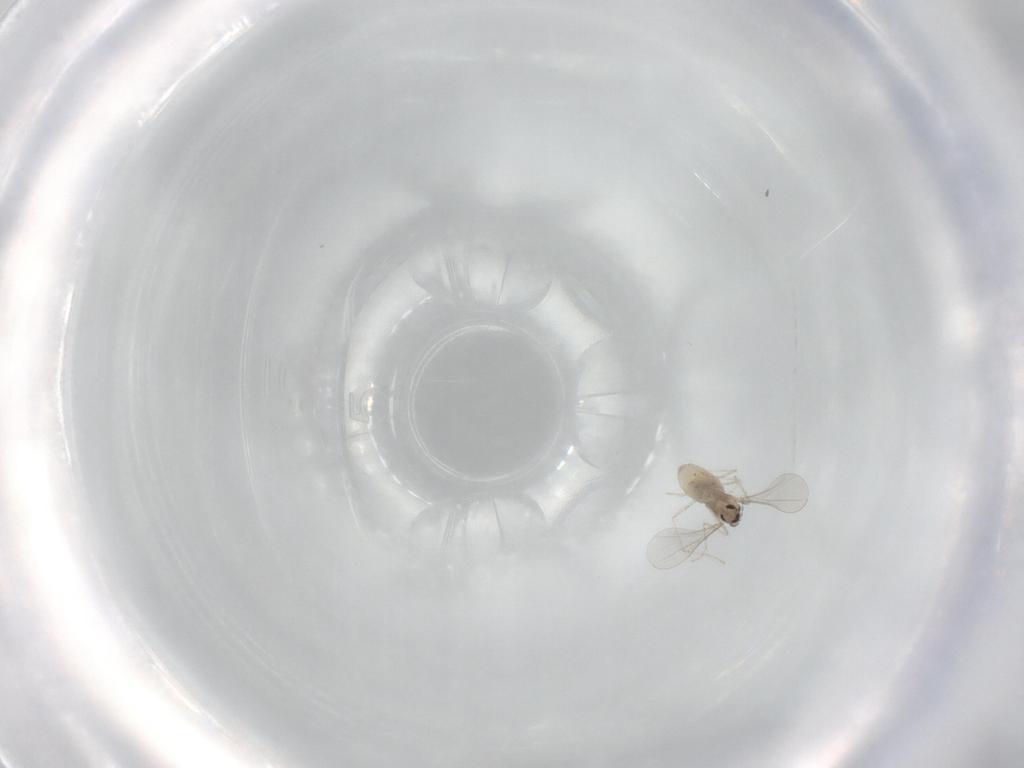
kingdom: Animalia
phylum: Arthropoda
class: Insecta
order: Diptera
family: Cecidomyiidae
